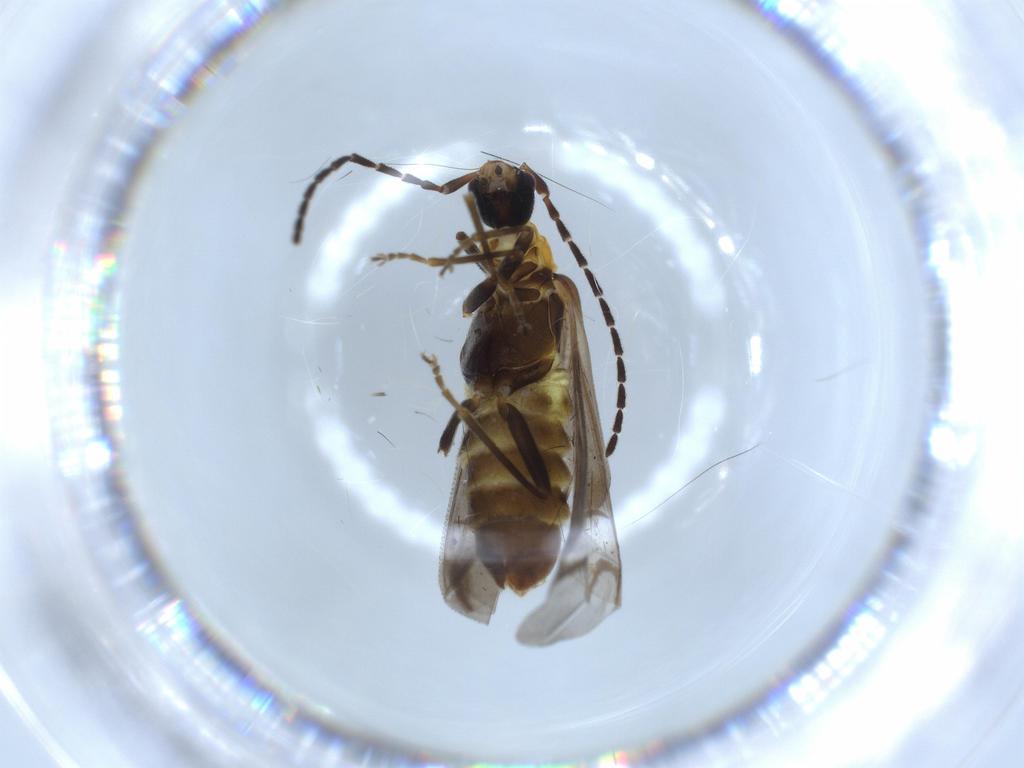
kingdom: Animalia
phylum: Arthropoda
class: Insecta
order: Coleoptera
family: Cantharidae
